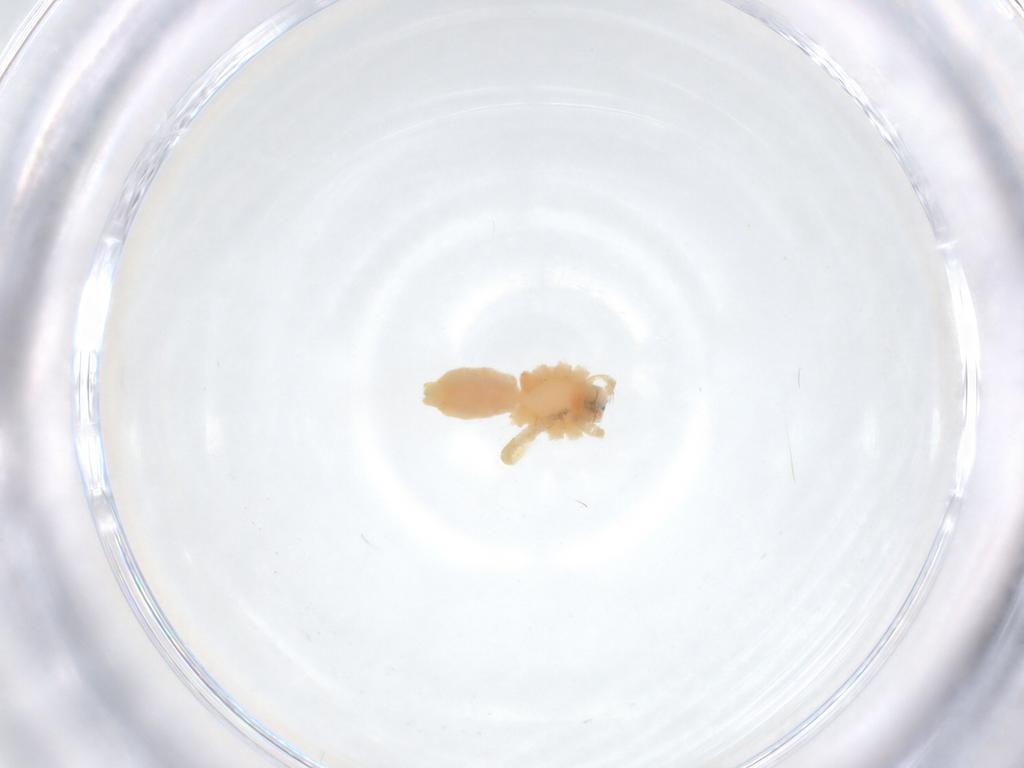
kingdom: Animalia
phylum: Arthropoda
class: Arachnida
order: Araneae
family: Anyphaenidae
